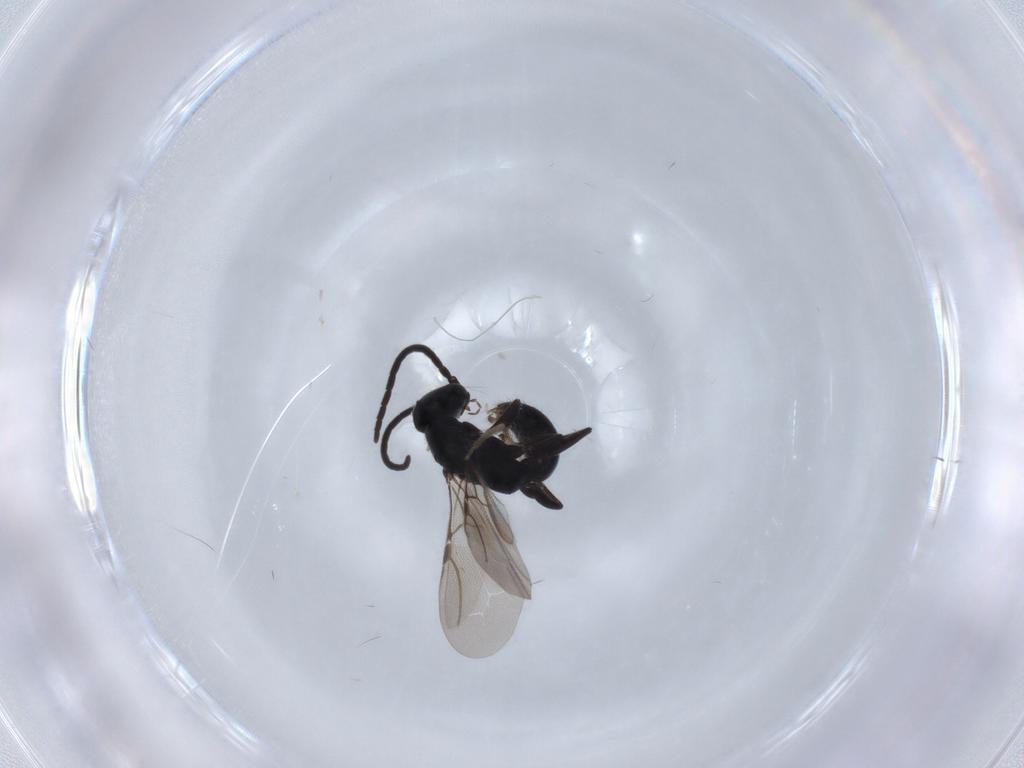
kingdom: Animalia
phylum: Arthropoda
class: Insecta
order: Hymenoptera
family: Bethylidae
